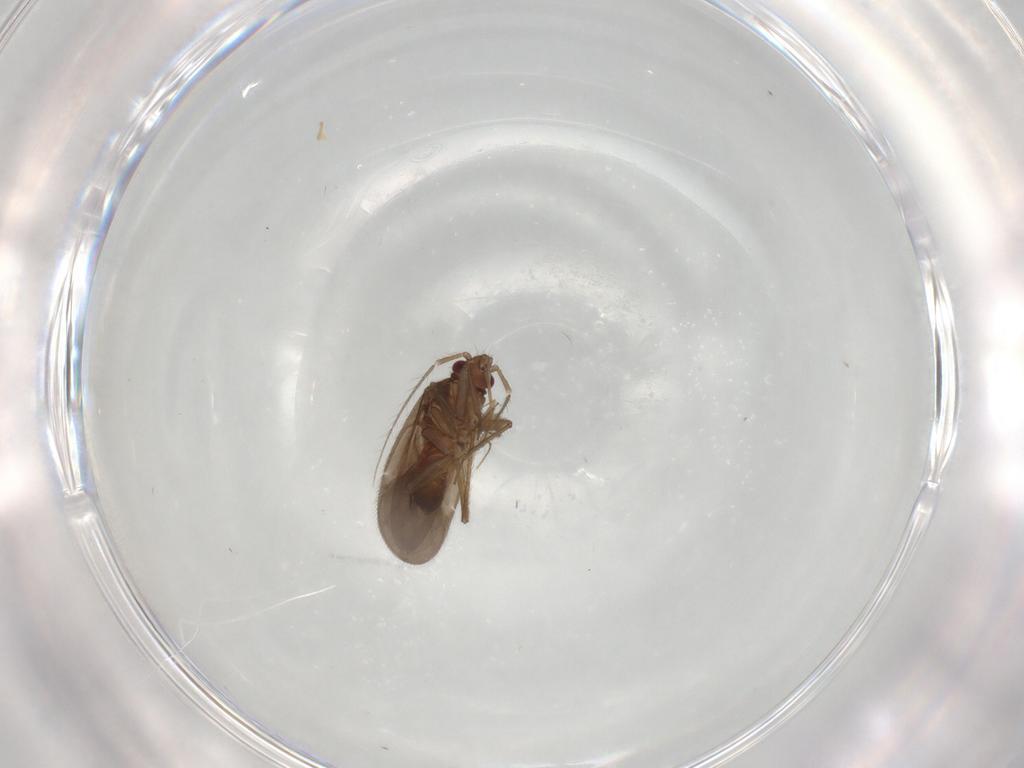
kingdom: Animalia
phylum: Arthropoda
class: Insecta
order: Hemiptera
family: Pentatomidae
